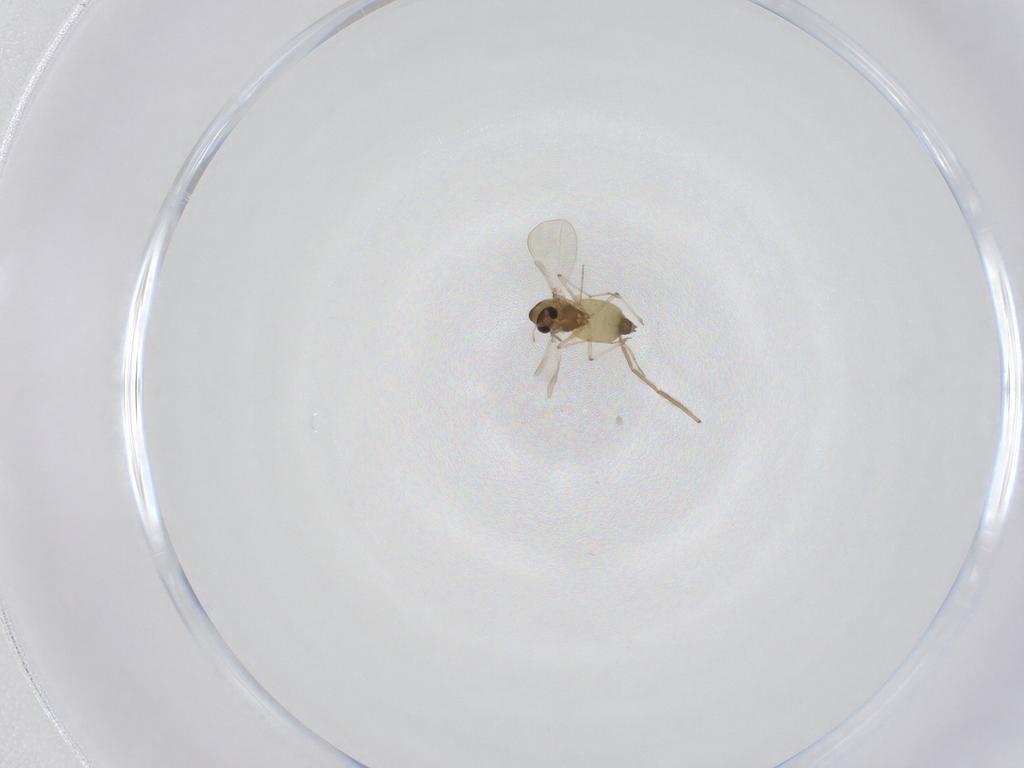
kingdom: Animalia
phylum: Arthropoda
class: Insecta
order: Diptera
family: Chironomidae
